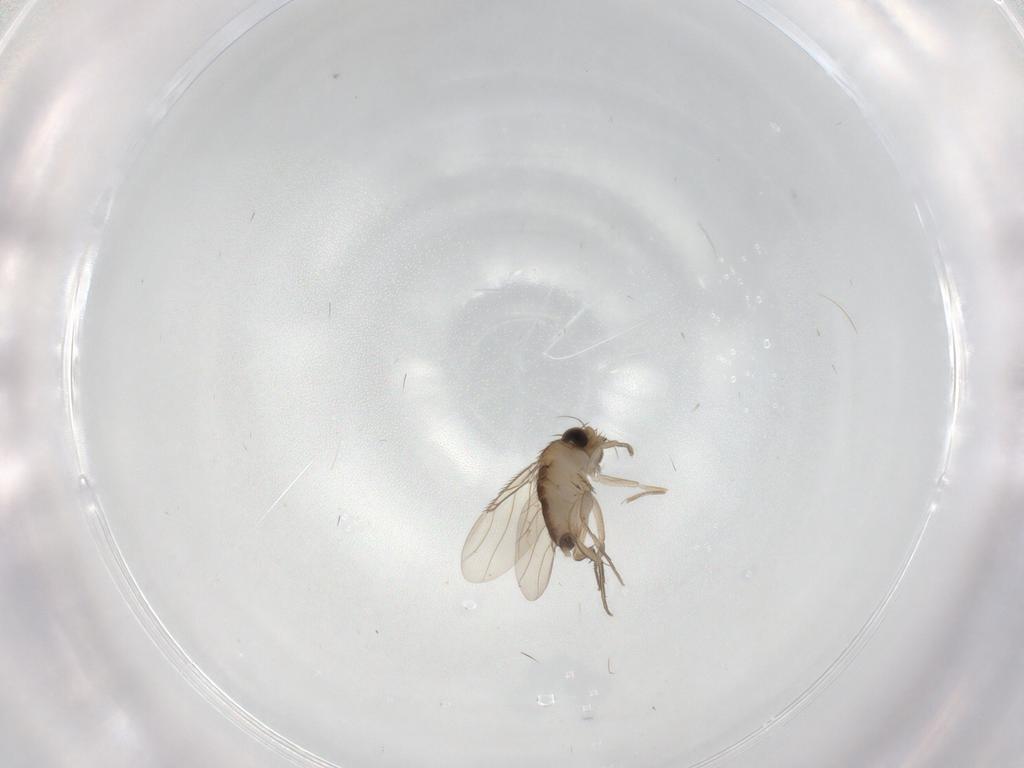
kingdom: Animalia
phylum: Arthropoda
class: Insecta
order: Diptera
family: Phoridae
